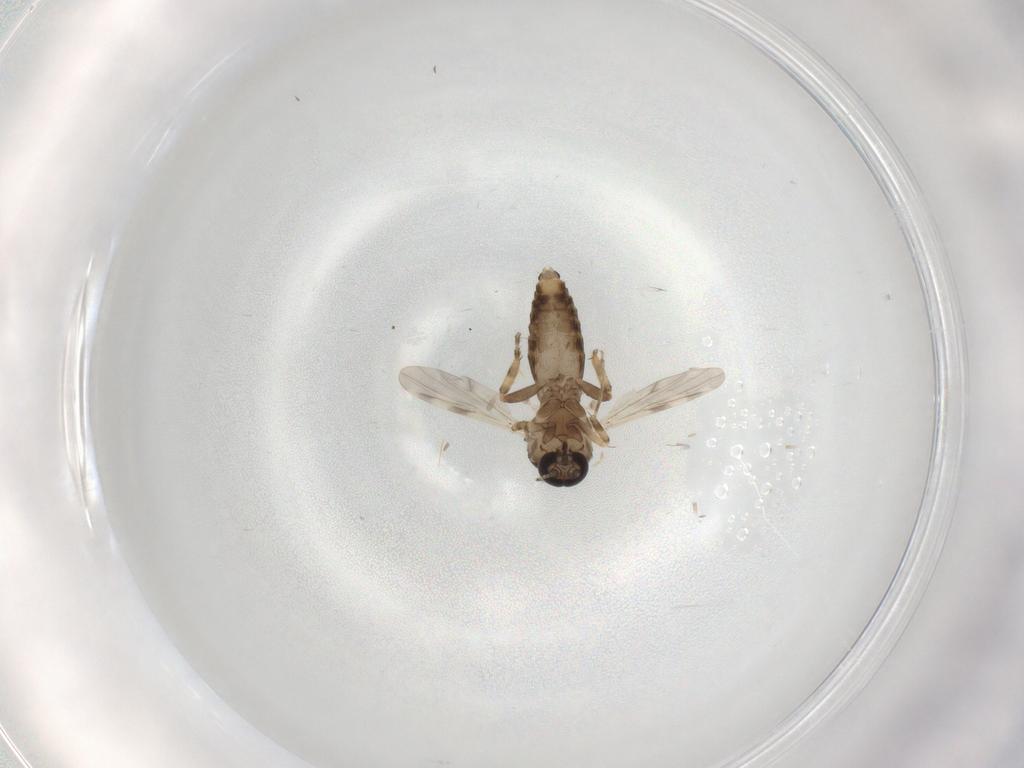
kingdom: Animalia
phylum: Arthropoda
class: Insecta
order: Diptera
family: Ceratopogonidae
